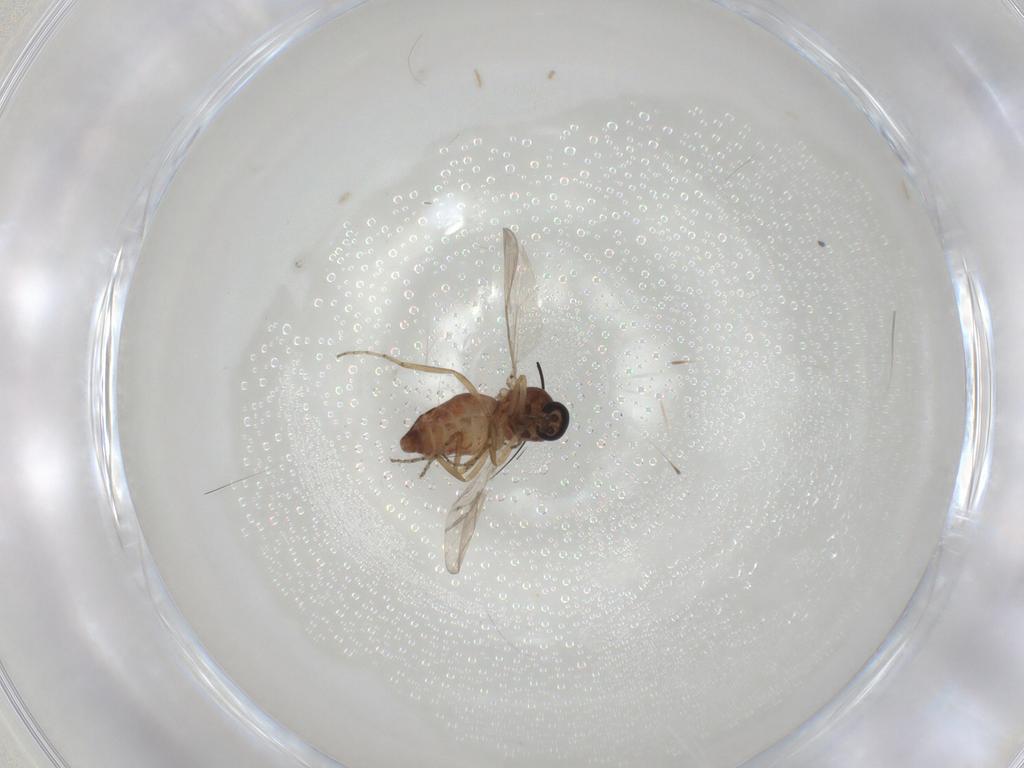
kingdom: Animalia
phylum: Arthropoda
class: Insecta
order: Diptera
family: Ceratopogonidae
